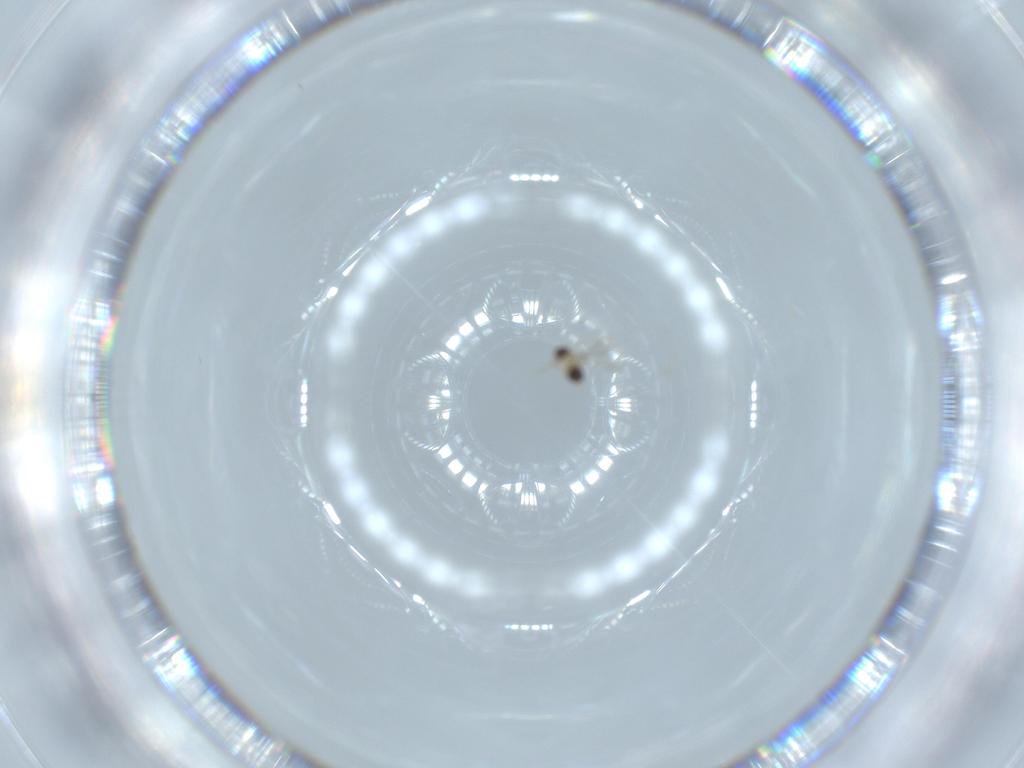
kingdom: Animalia
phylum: Arthropoda
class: Insecta
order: Hymenoptera
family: Mymaridae
